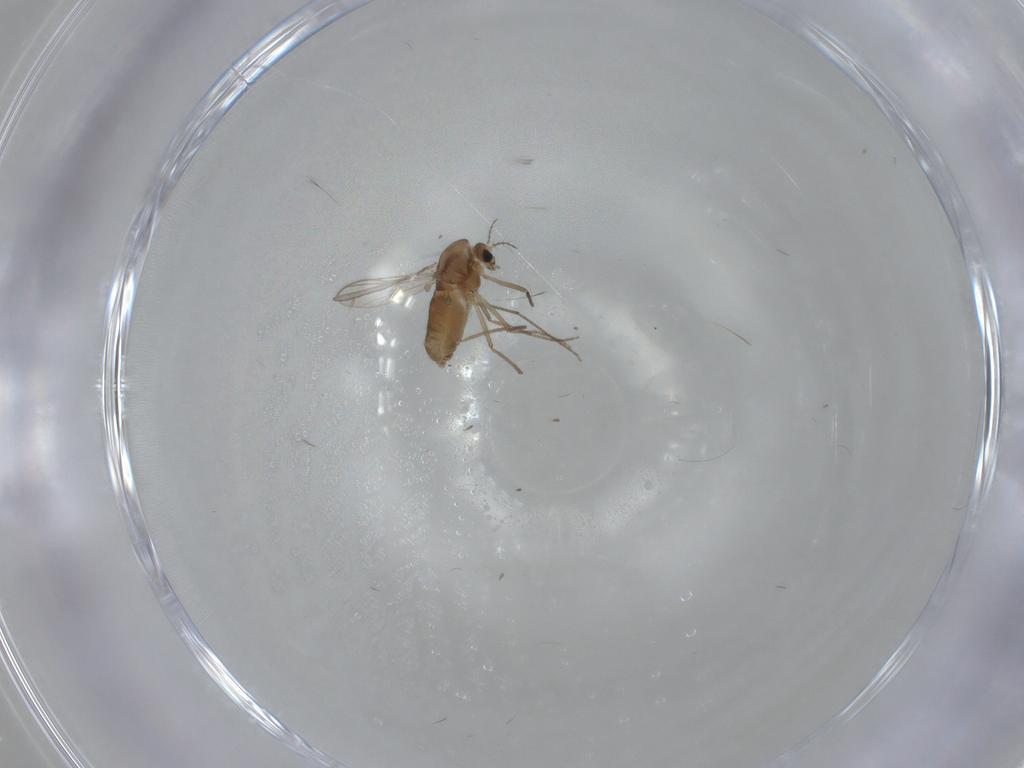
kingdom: Animalia
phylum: Arthropoda
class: Insecta
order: Diptera
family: Chironomidae
